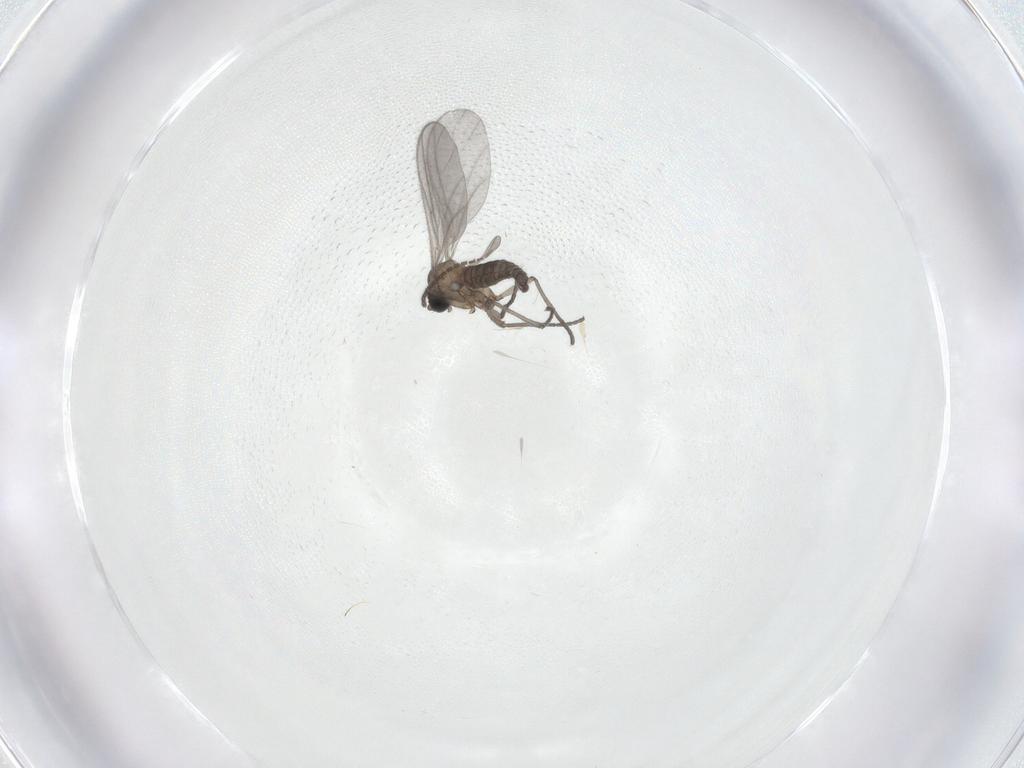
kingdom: Animalia
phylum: Arthropoda
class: Insecta
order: Diptera
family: Sciaridae
